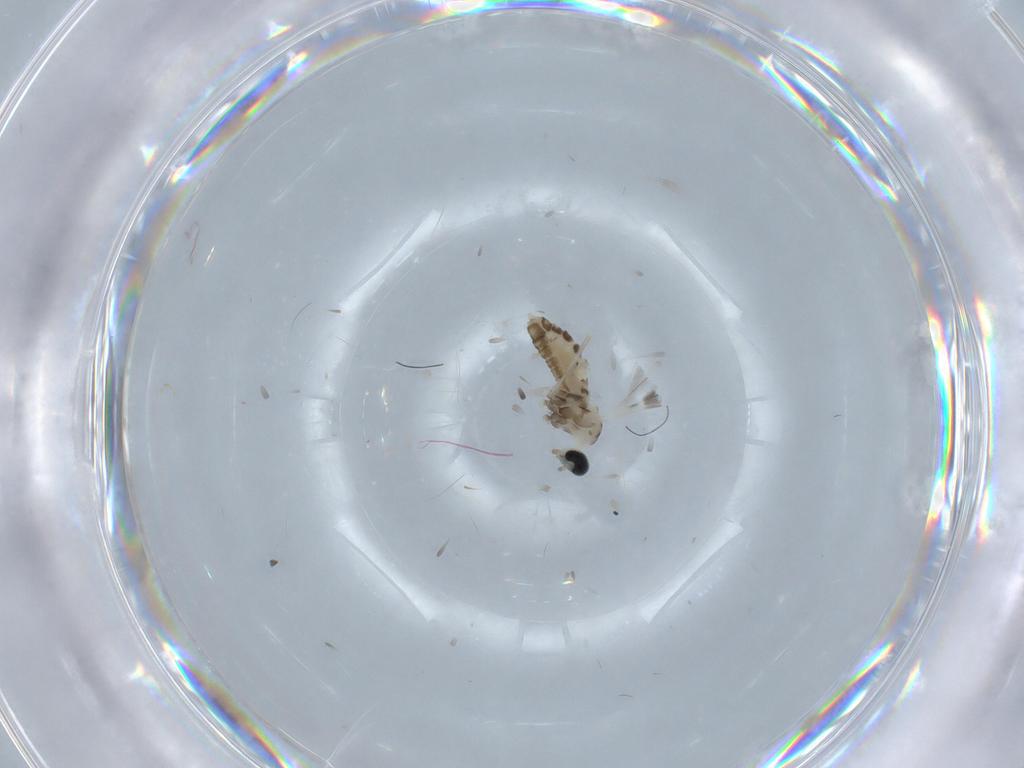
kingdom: Animalia
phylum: Arthropoda
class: Insecta
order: Diptera
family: Cecidomyiidae
